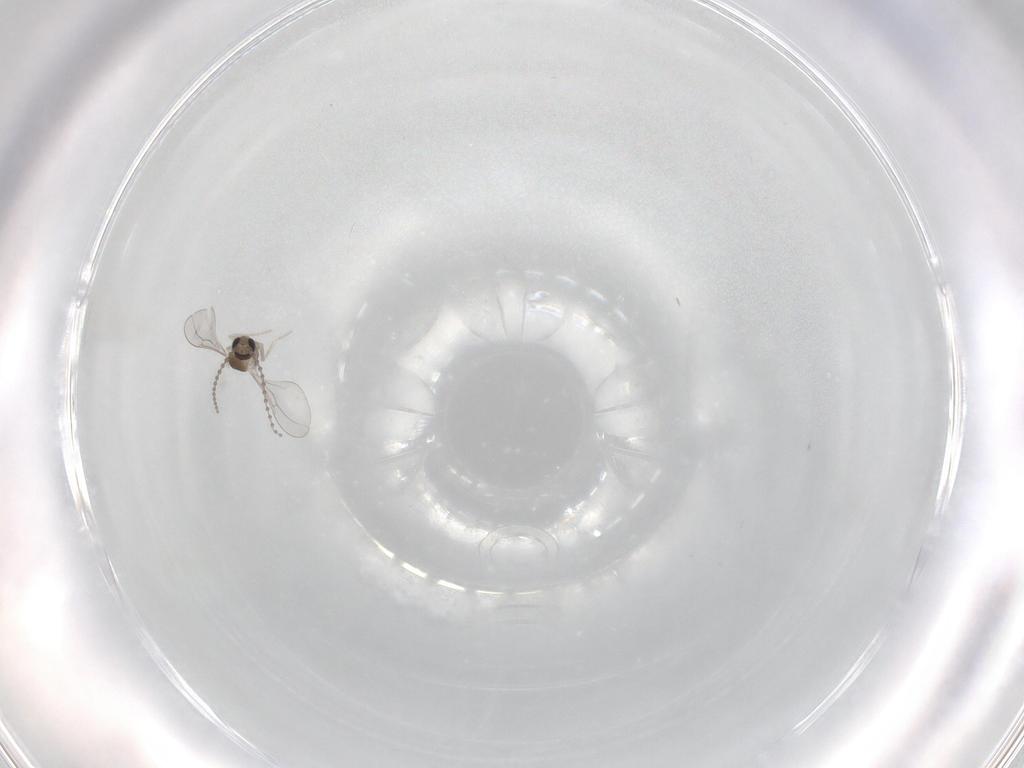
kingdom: Animalia
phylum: Arthropoda
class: Insecta
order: Diptera
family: Cecidomyiidae
